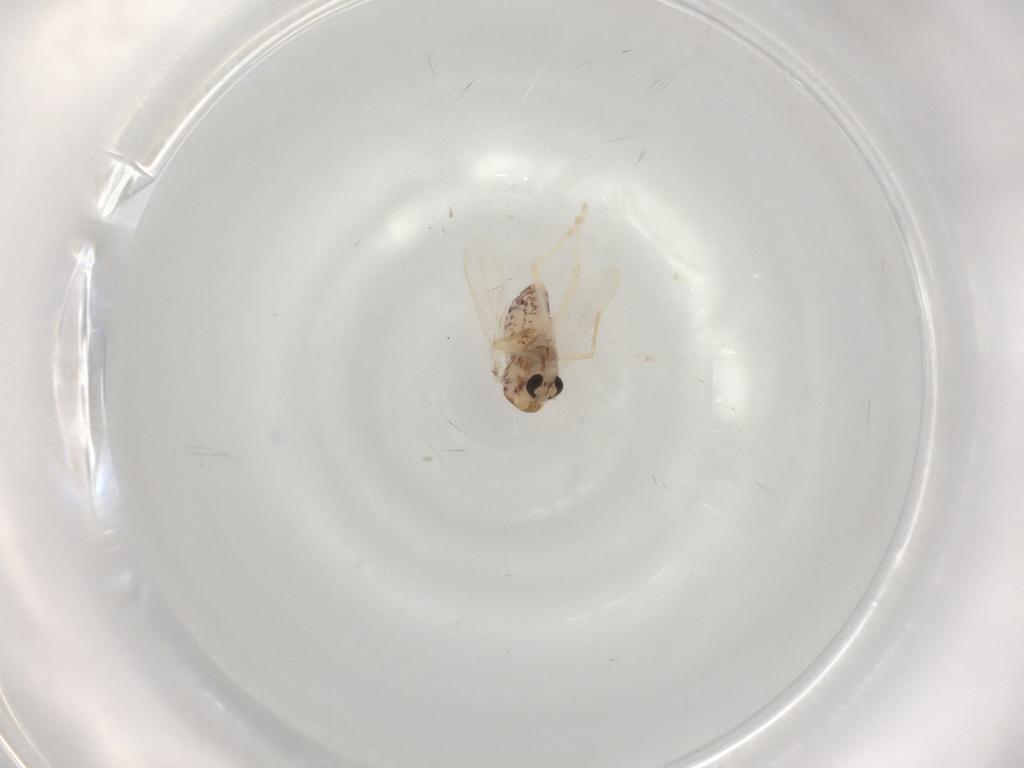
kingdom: Animalia
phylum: Arthropoda
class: Insecta
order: Diptera
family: Chironomidae
